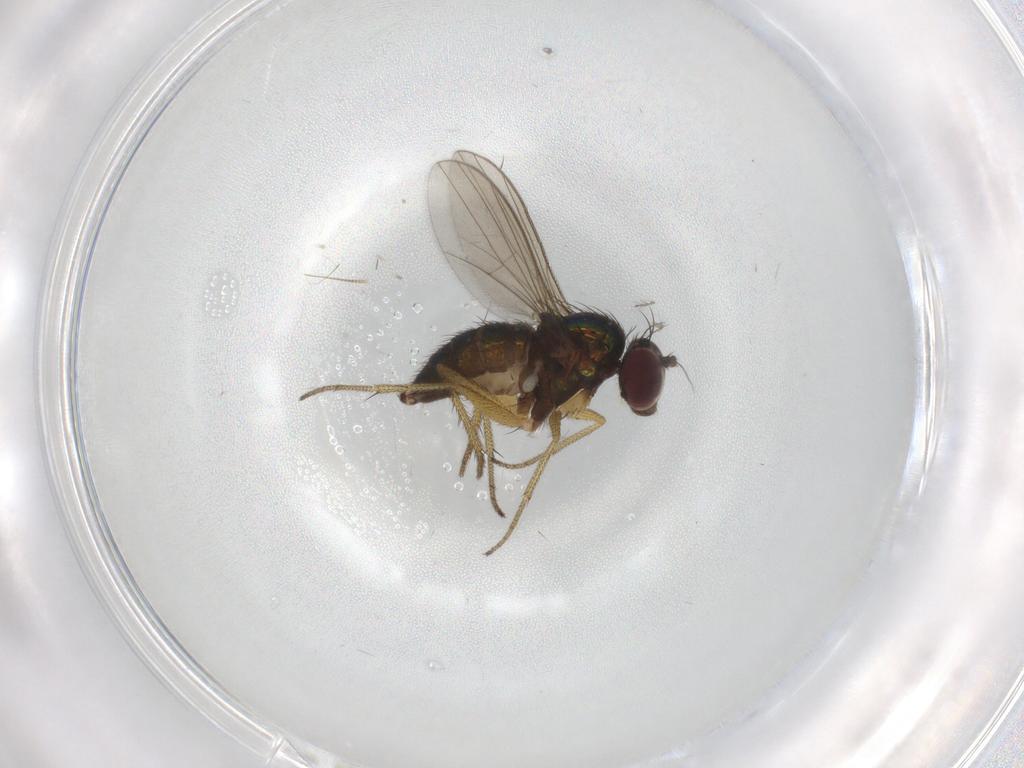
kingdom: Animalia
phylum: Arthropoda
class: Insecta
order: Diptera
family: Dolichopodidae
